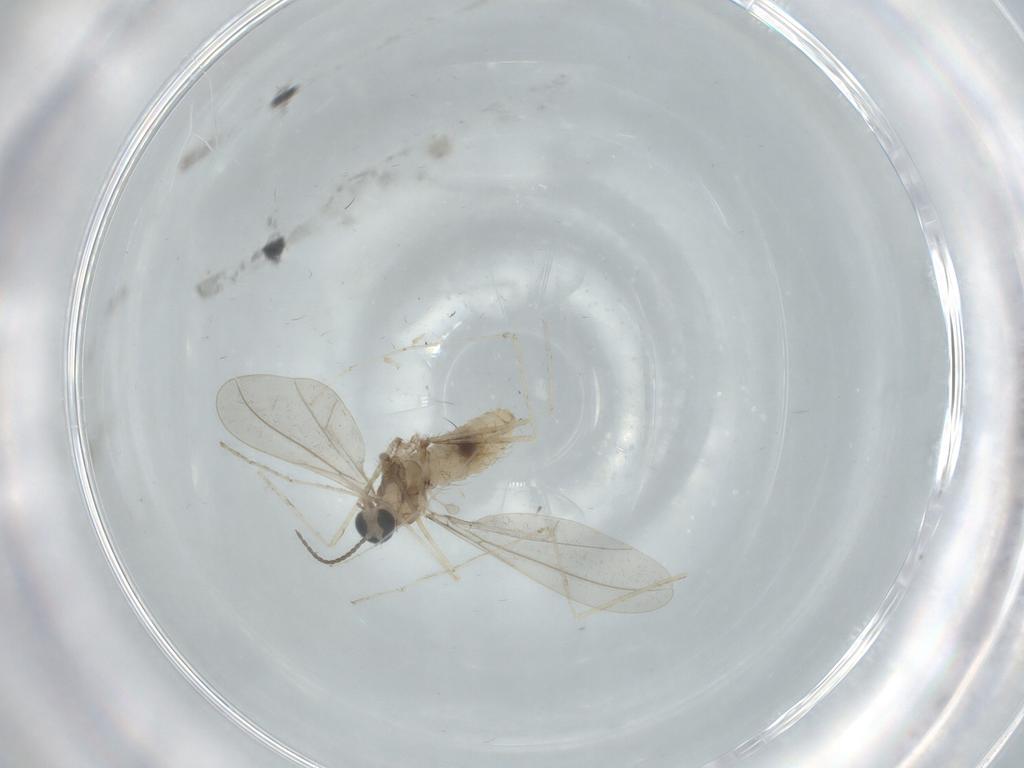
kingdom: Animalia
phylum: Arthropoda
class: Insecta
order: Diptera
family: Cecidomyiidae
